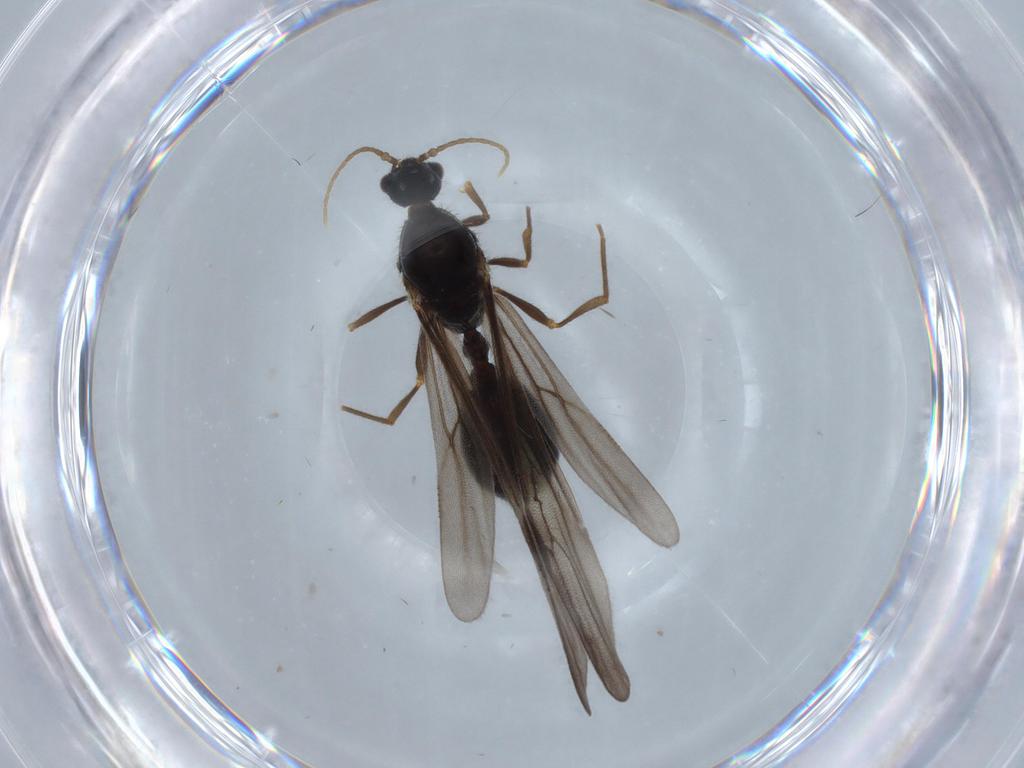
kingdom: Animalia
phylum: Arthropoda
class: Insecta
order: Hymenoptera
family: Formicidae
